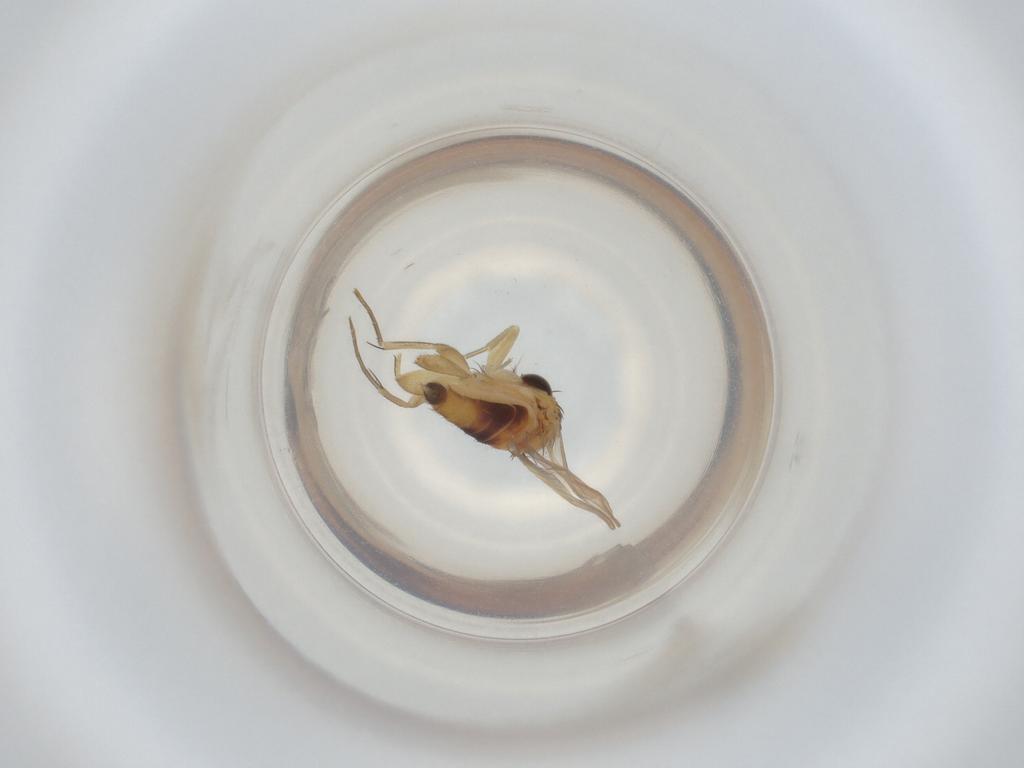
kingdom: Animalia
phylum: Arthropoda
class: Insecta
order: Diptera
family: Phoridae
